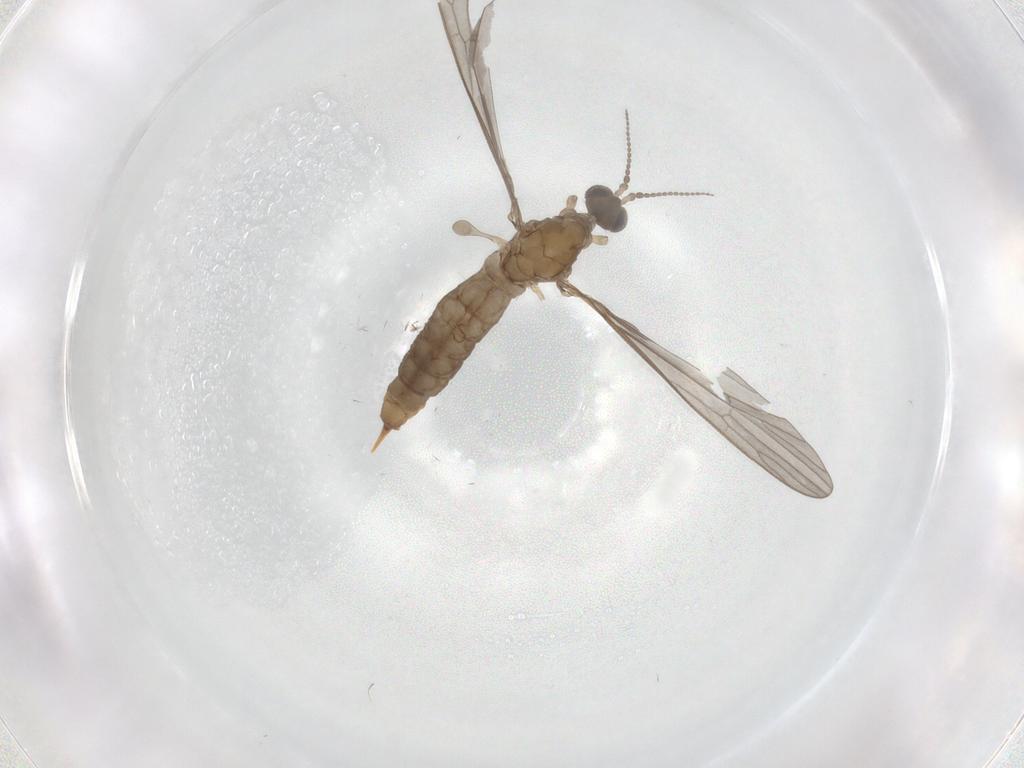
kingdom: Animalia
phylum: Arthropoda
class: Insecta
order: Diptera
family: Limoniidae
